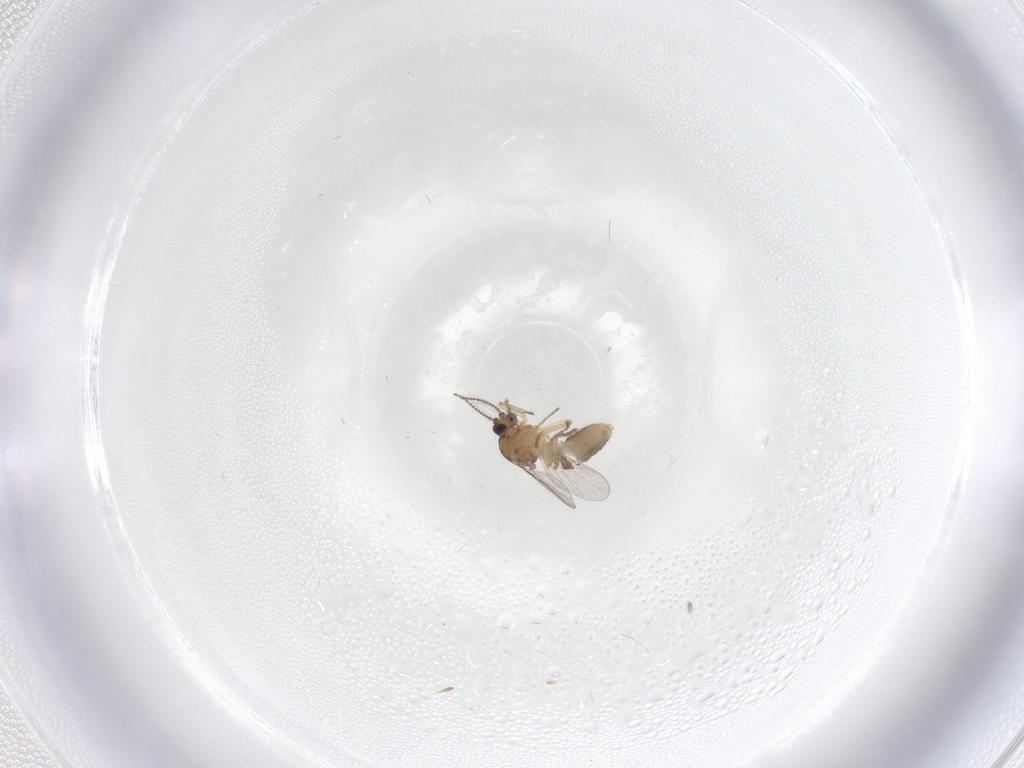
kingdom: Animalia
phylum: Arthropoda
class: Insecta
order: Diptera
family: Ceratopogonidae
